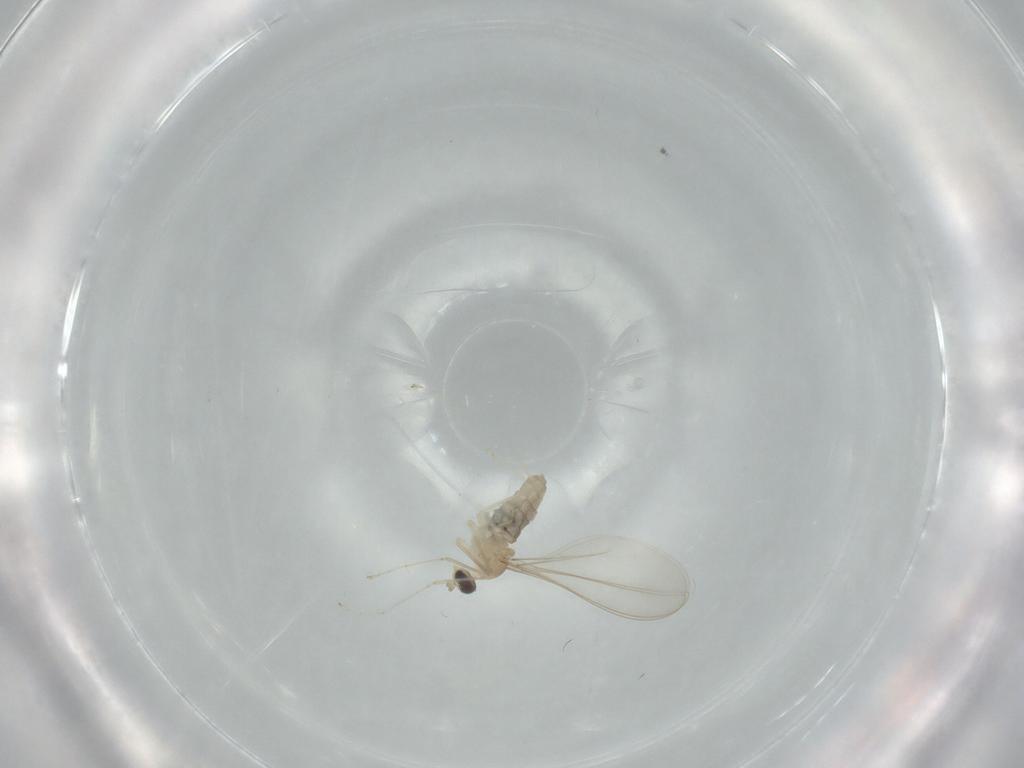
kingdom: Animalia
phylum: Arthropoda
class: Insecta
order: Diptera
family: Cecidomyiidae
